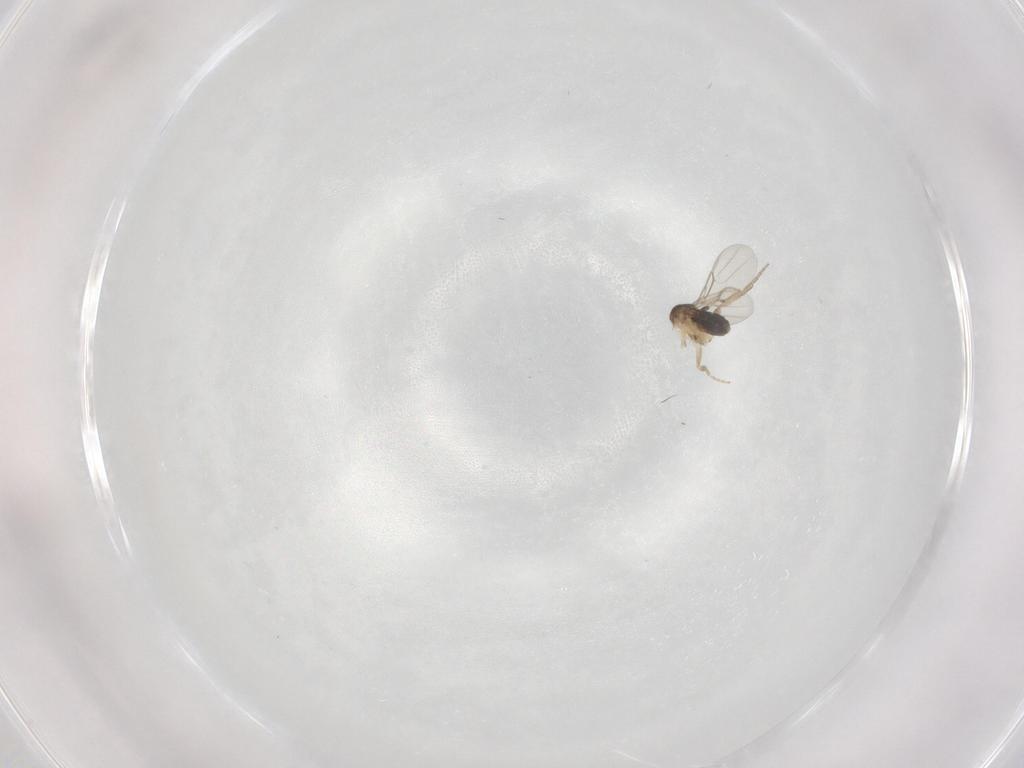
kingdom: Animalia
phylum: Arthropoda
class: Insecta
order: Diptera
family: Phoridae
